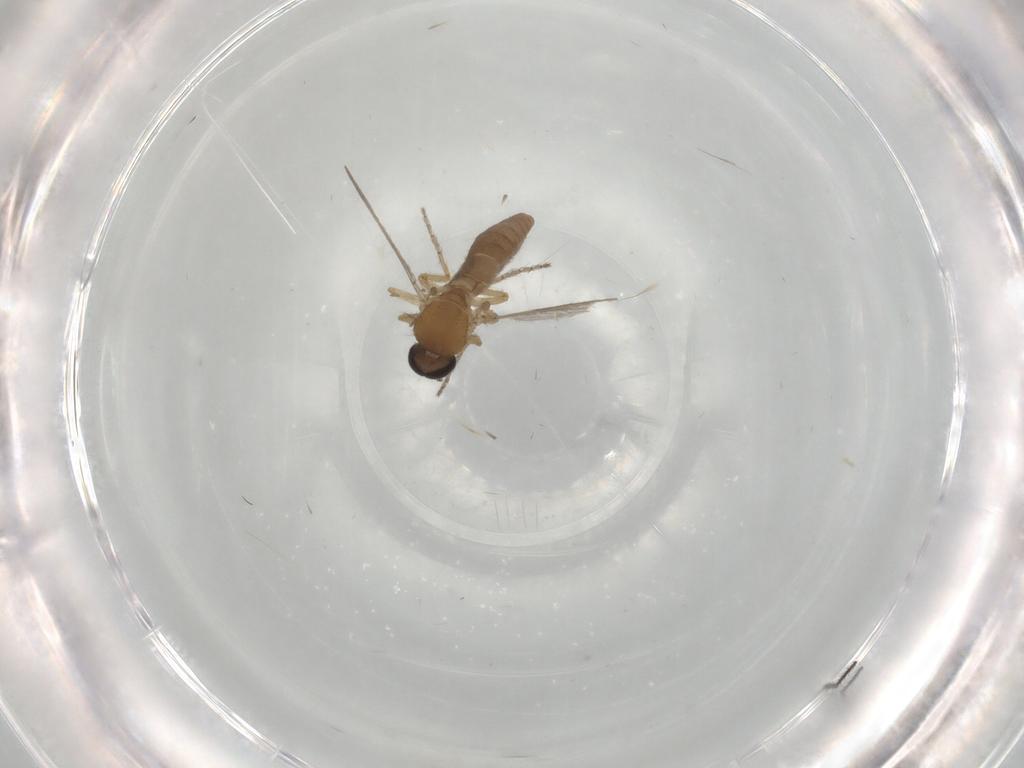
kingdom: Animalia
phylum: Arthropoda
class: Insecta
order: Diptera
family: Ceratopogonidae
